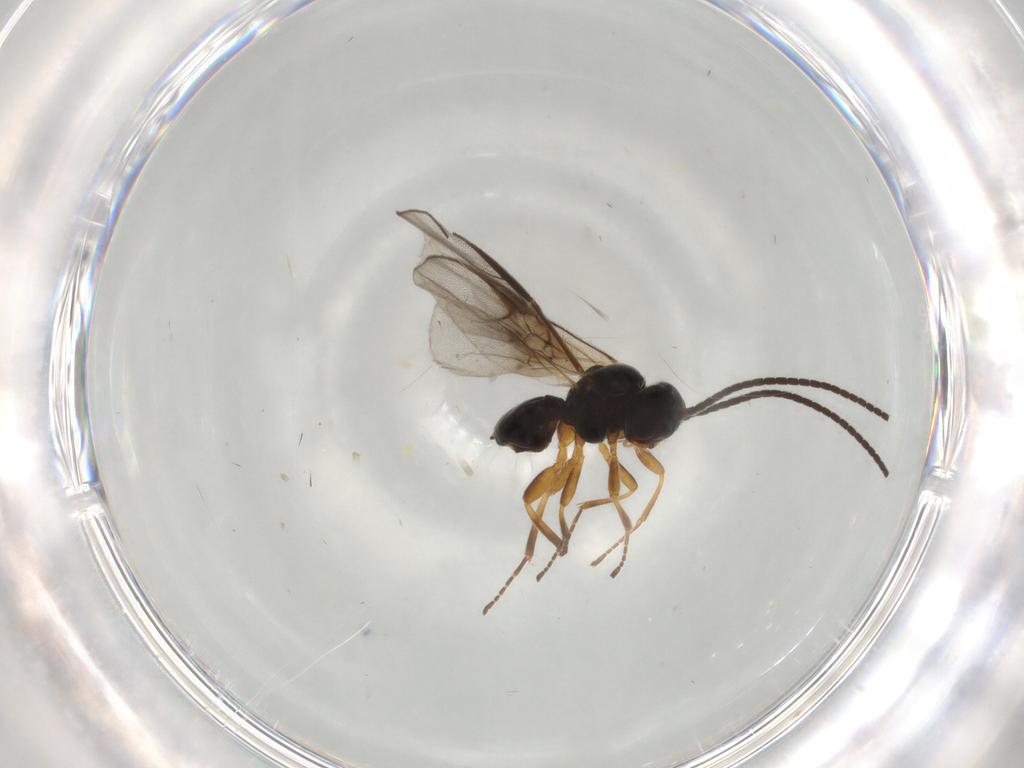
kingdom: Animalia
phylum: Arthropoda
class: Insecta
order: Hymenoptera
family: Braconidae
